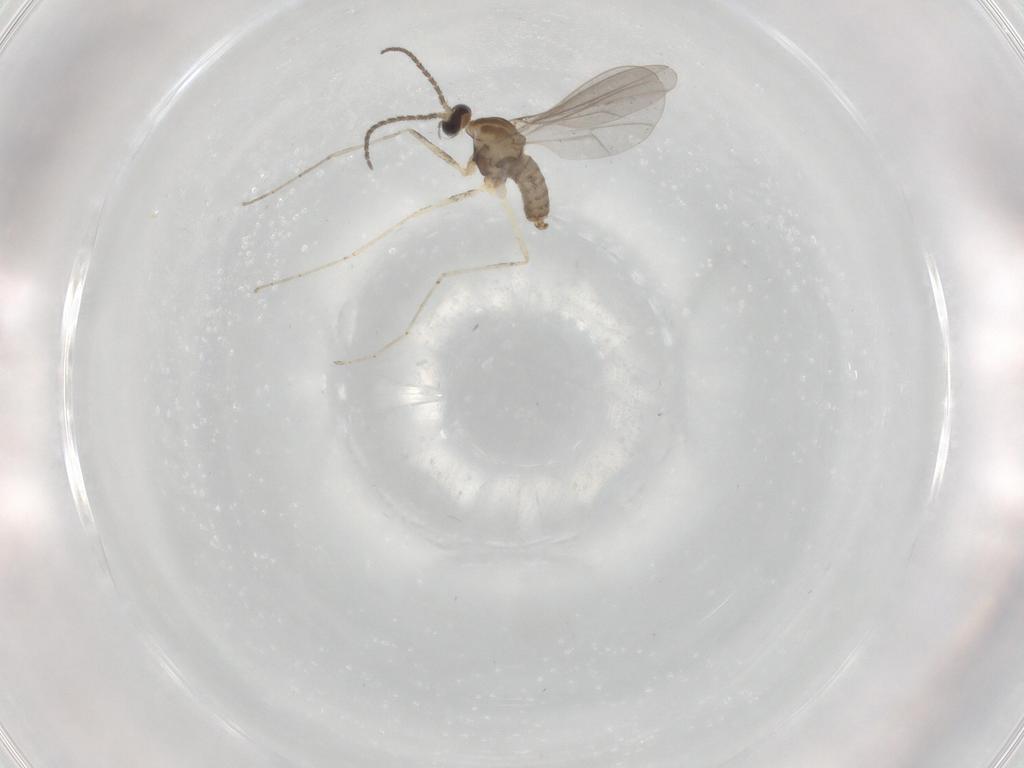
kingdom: Animalia
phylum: Arthropoda
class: Insecta
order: Diptera
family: Cecidomyiidae
